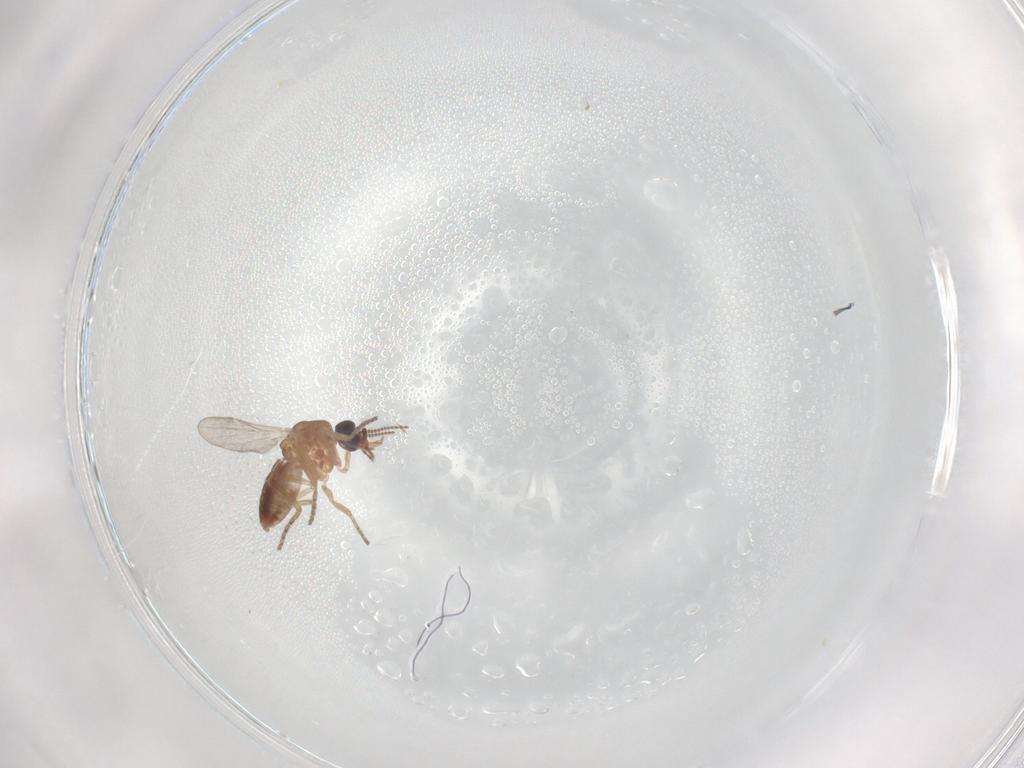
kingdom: Animalia
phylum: Arthropoda
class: Insecta
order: Diptera
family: Ceratopogonidae
